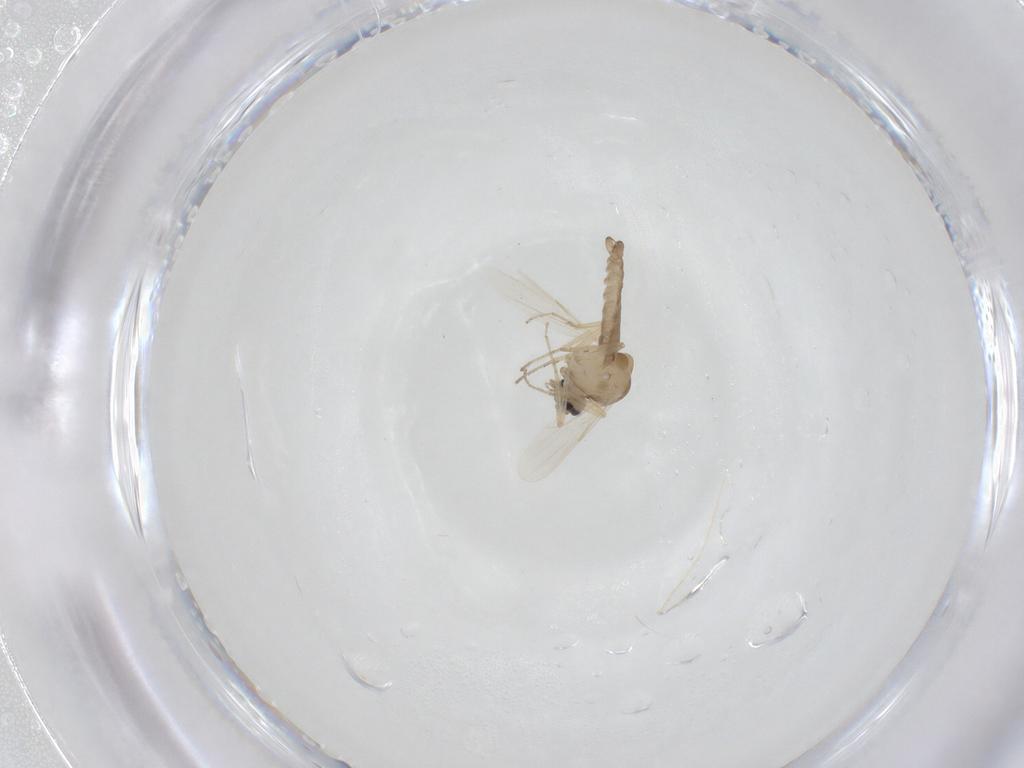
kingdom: Animalia
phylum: Arthropoda
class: Insecta
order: Diptera
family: Ceratopogonidae
